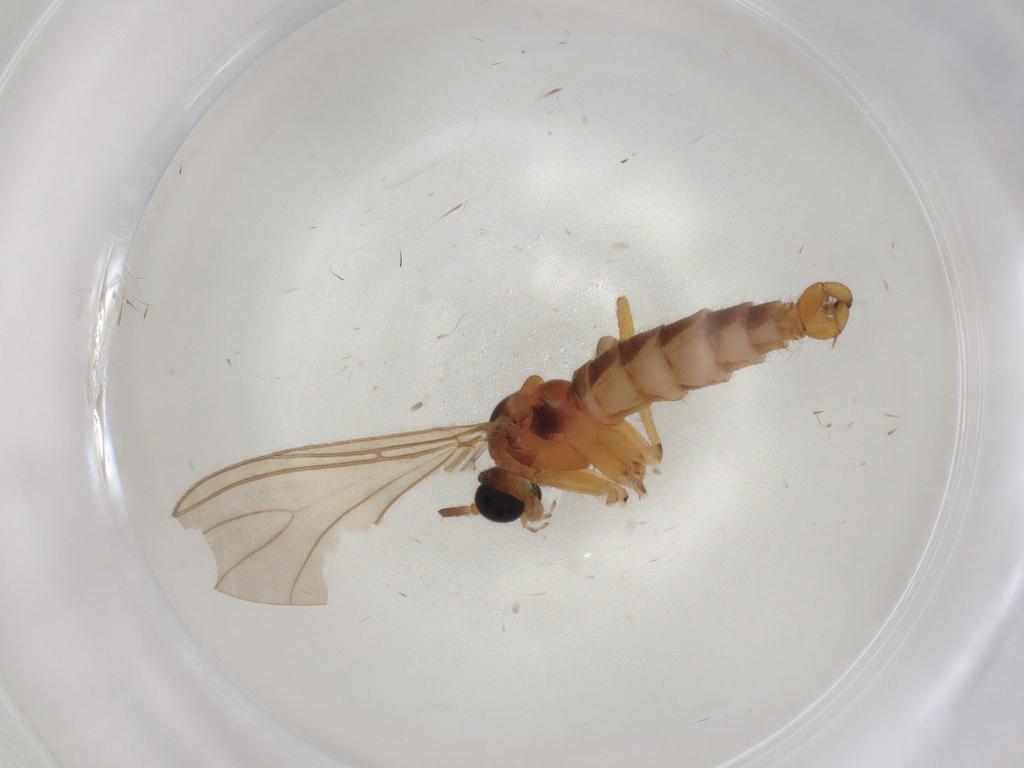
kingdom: Animalia
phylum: Arthropoda
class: Insecta
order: Diptera
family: Sciaridae
